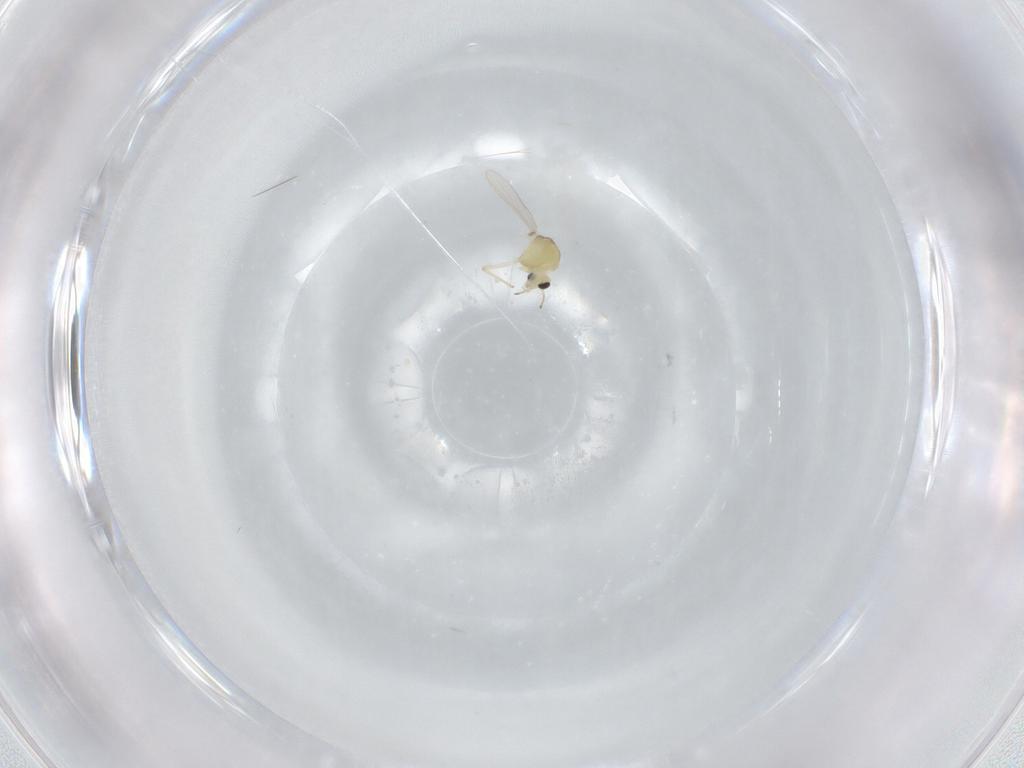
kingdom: Animalia
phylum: Arthropoda
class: Insecta
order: Diptera
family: Chironomidae
